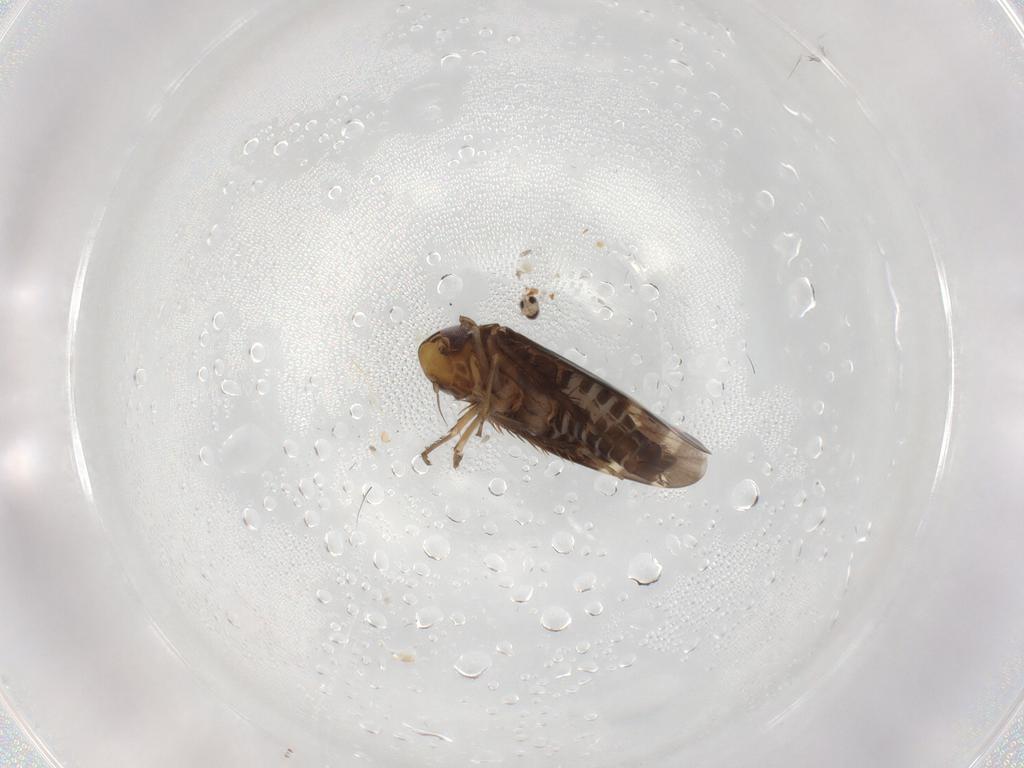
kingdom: Animalia
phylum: Arthropoda
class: Insecta
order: Hemiptera
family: Cicadellidae
